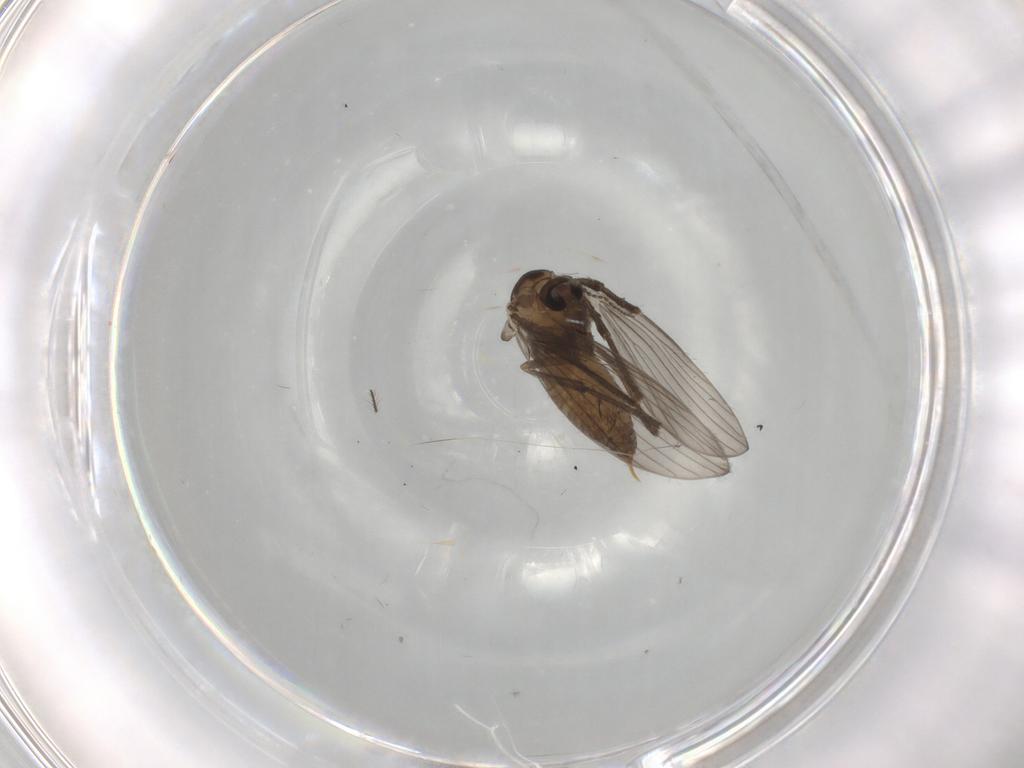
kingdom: Animalia
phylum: Arthropoda
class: Insecta
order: Diptera
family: Psychodidae
